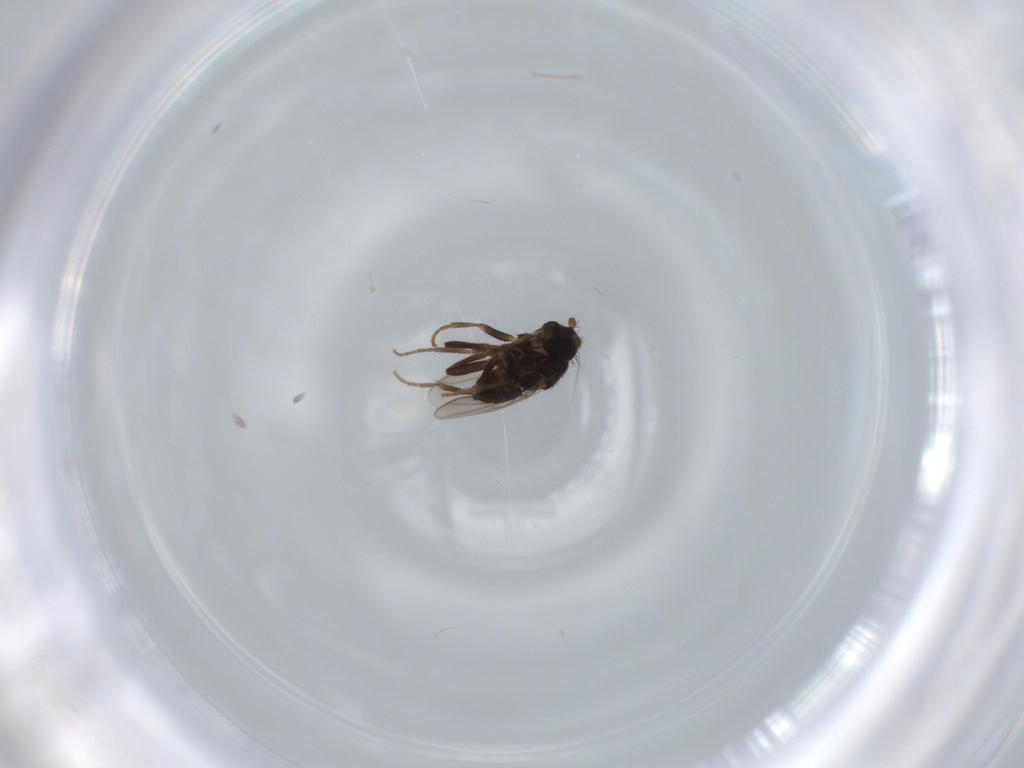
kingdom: Animalia
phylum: Arthropoda
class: Insecta
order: Diptera
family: Sphaeroceridae
